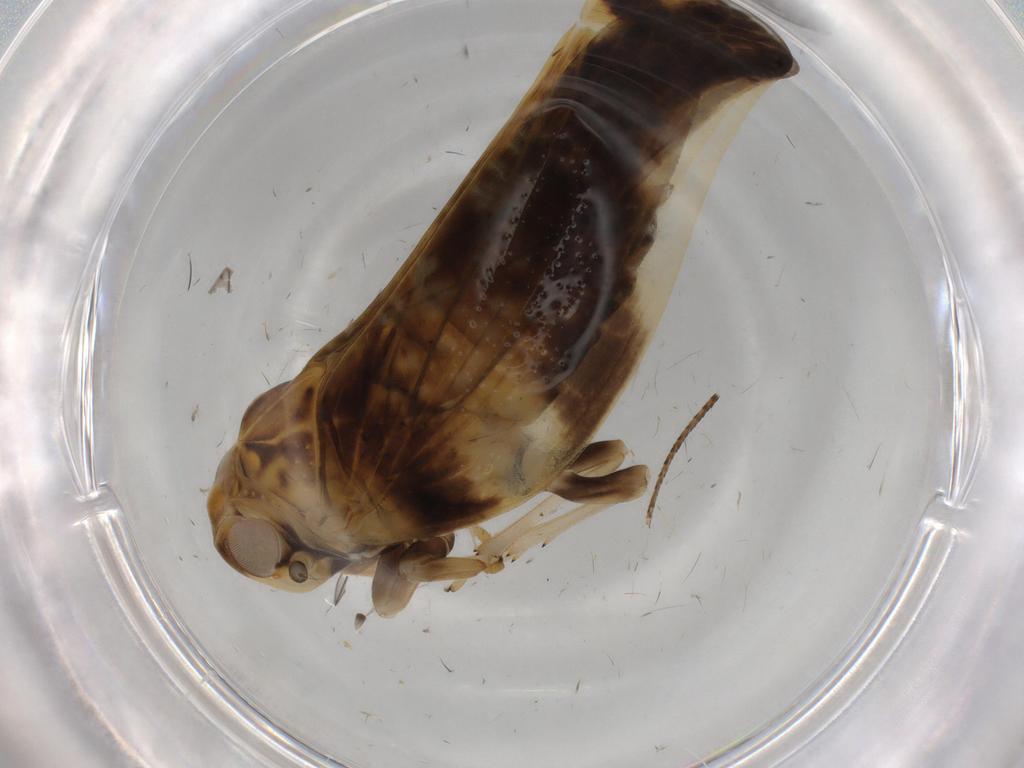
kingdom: Animalia
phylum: Arthropoda
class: Insecta
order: Hemiptera
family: Nogodinidae
